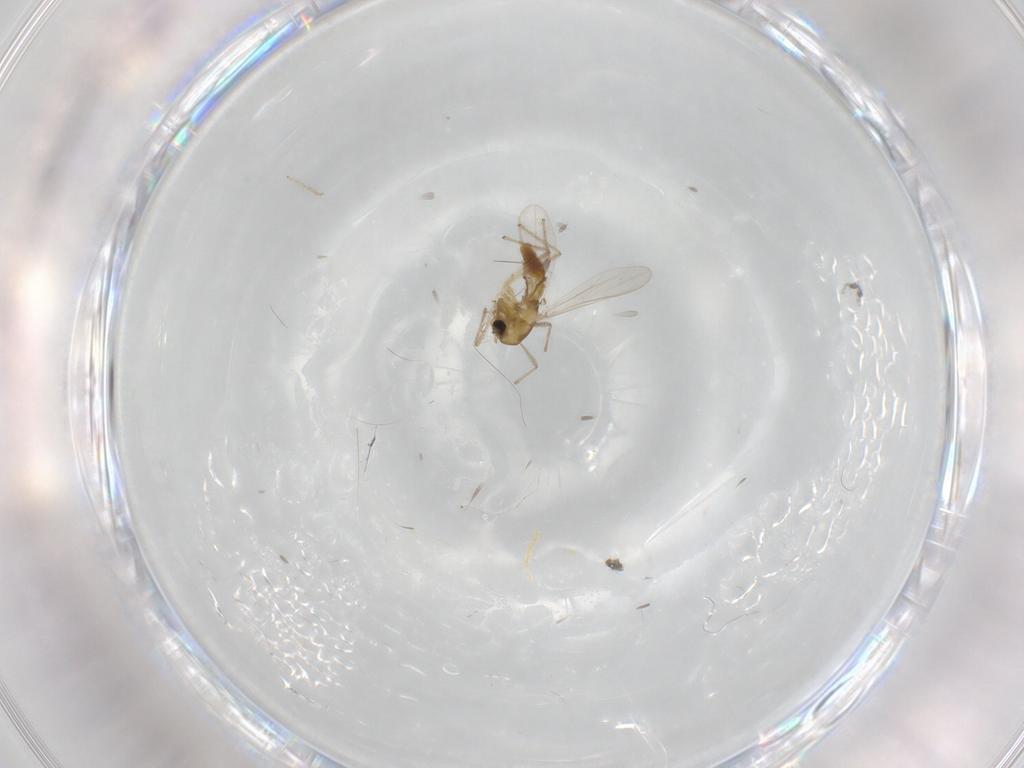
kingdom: Animalia
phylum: Arthropoda
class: Insecta
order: Diptera
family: Chironomidae
